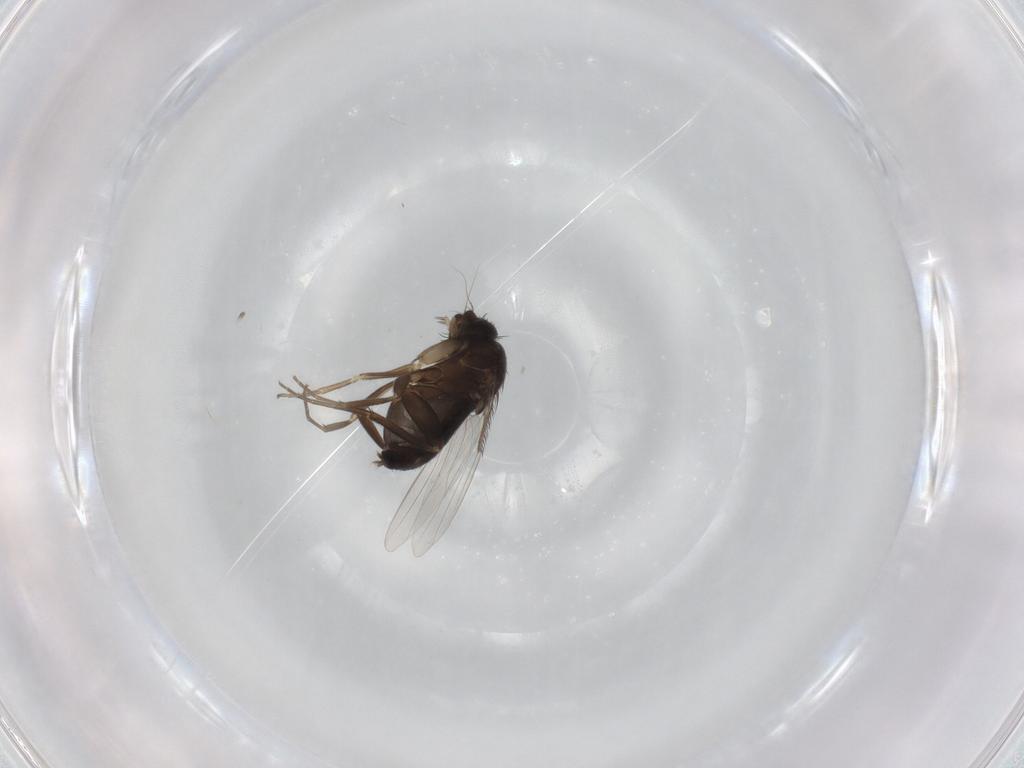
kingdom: Animalia
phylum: Arthropoda
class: Insecta
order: Diptera
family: Phoridae
